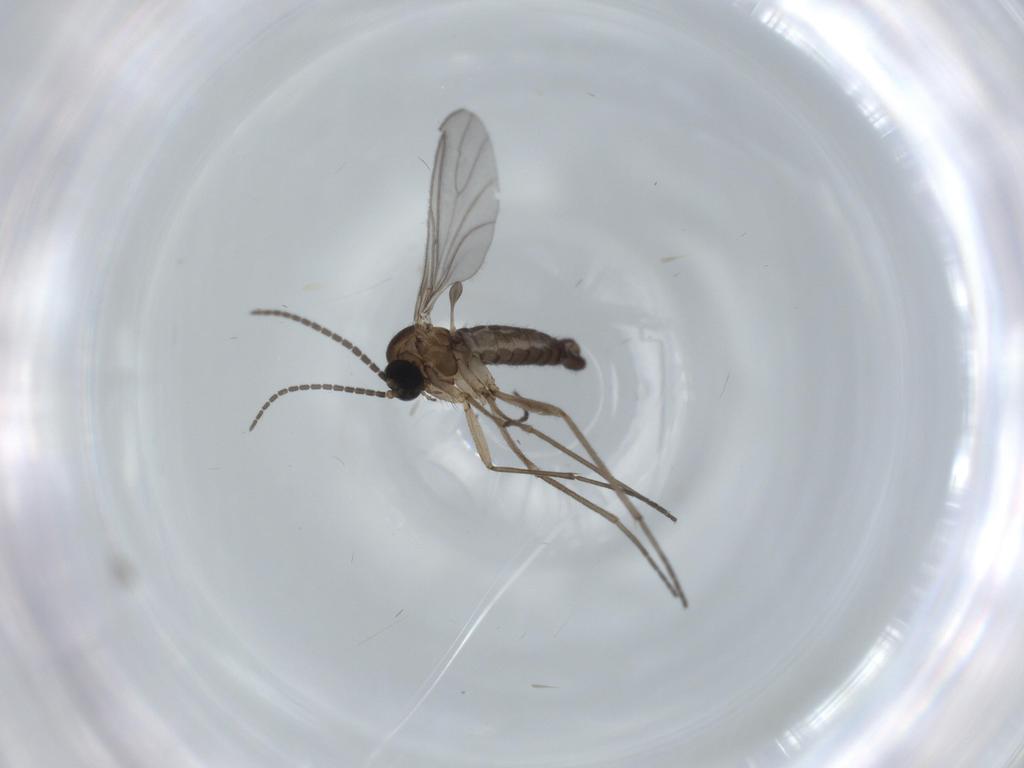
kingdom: Animalia
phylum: Arthropoda
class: Insecta
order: Diptera
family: Sciaridae
